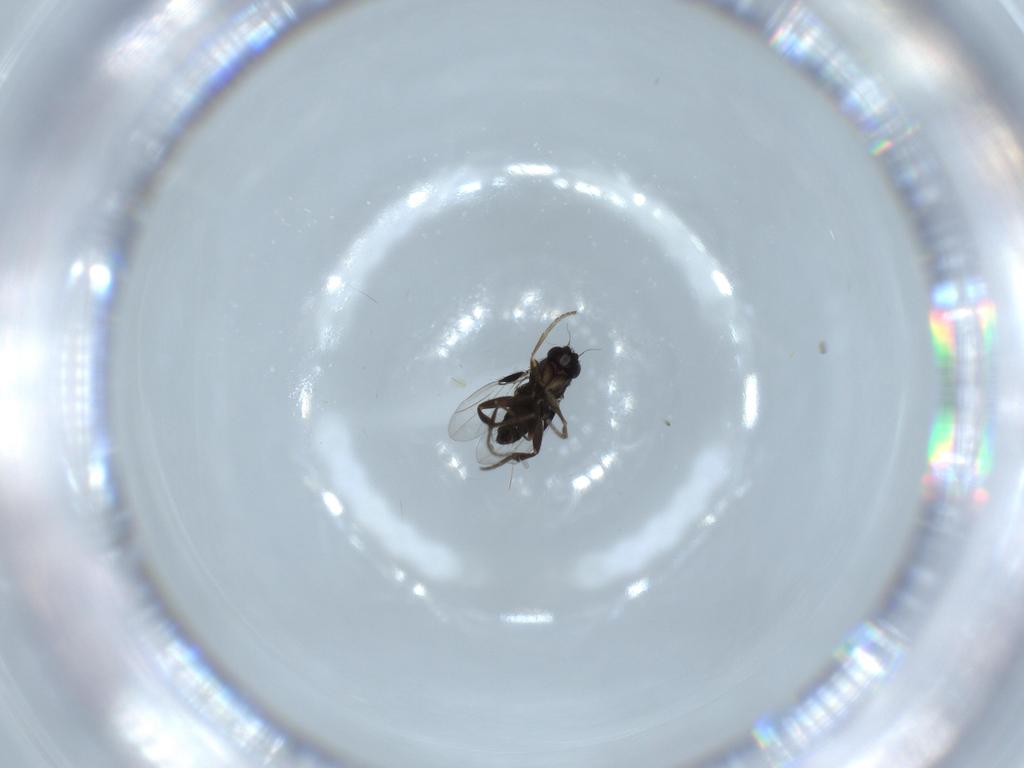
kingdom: Animalia
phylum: Arthropoda
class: Insecta
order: Diptera
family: Phoridae
